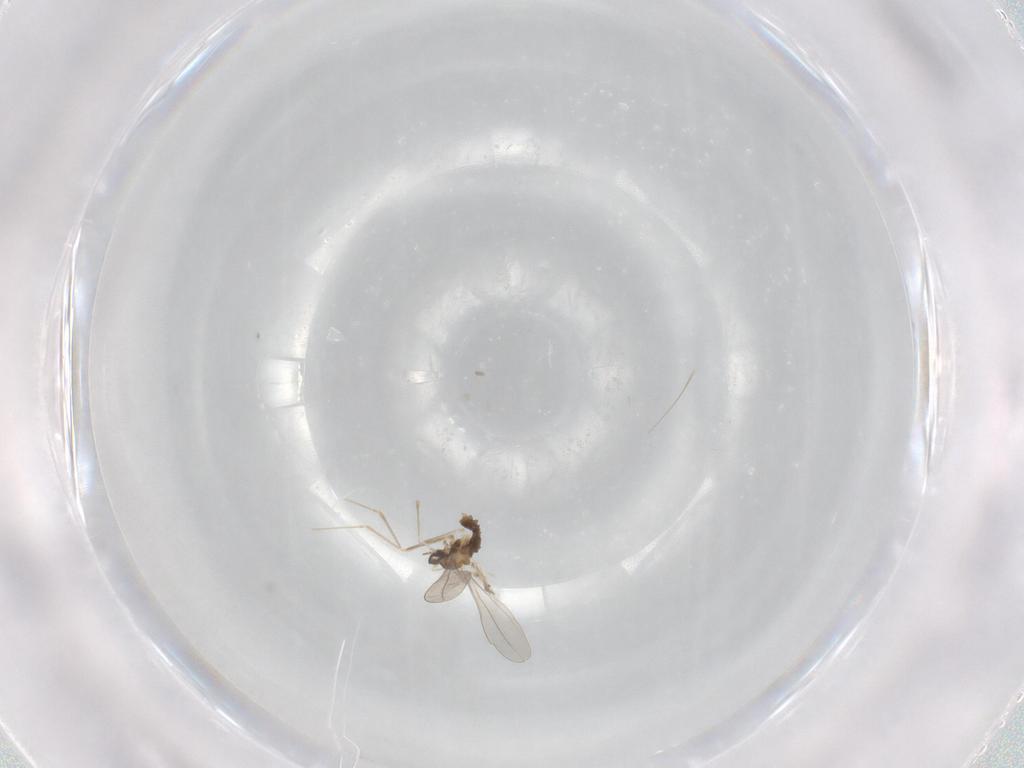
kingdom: Animalia
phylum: Arthropoda
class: Insecta
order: Diptera
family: Cecidomyiidae
